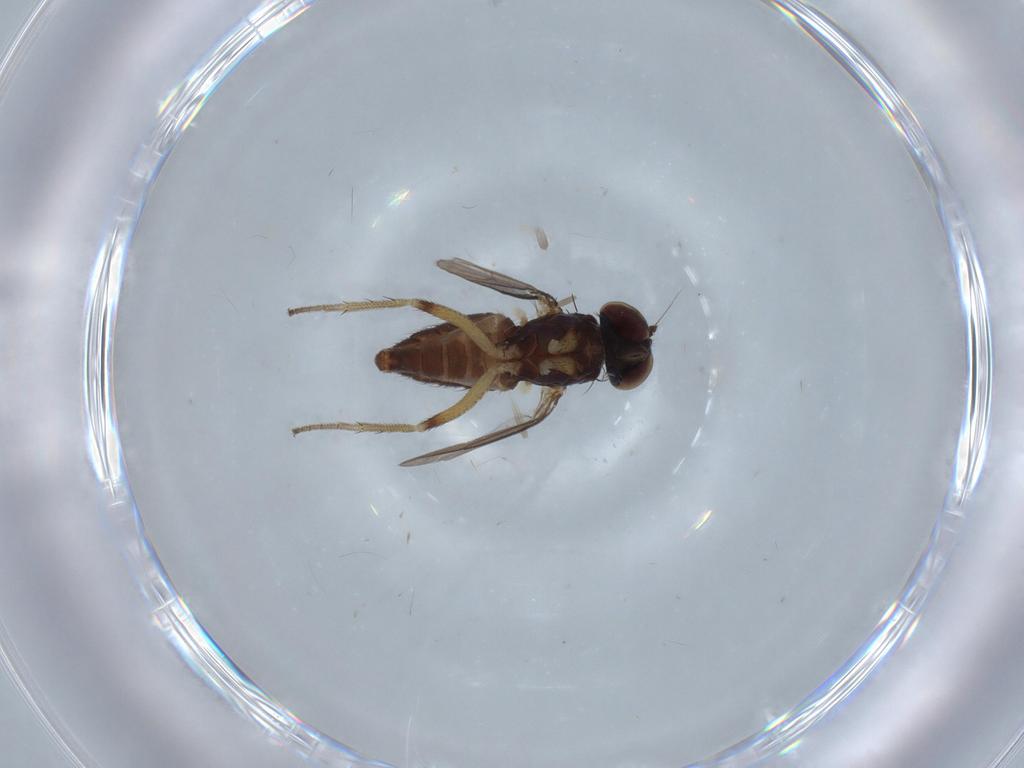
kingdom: Animalia
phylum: Arthropoda
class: Insecta
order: Diptera
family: Dolichopodidae
